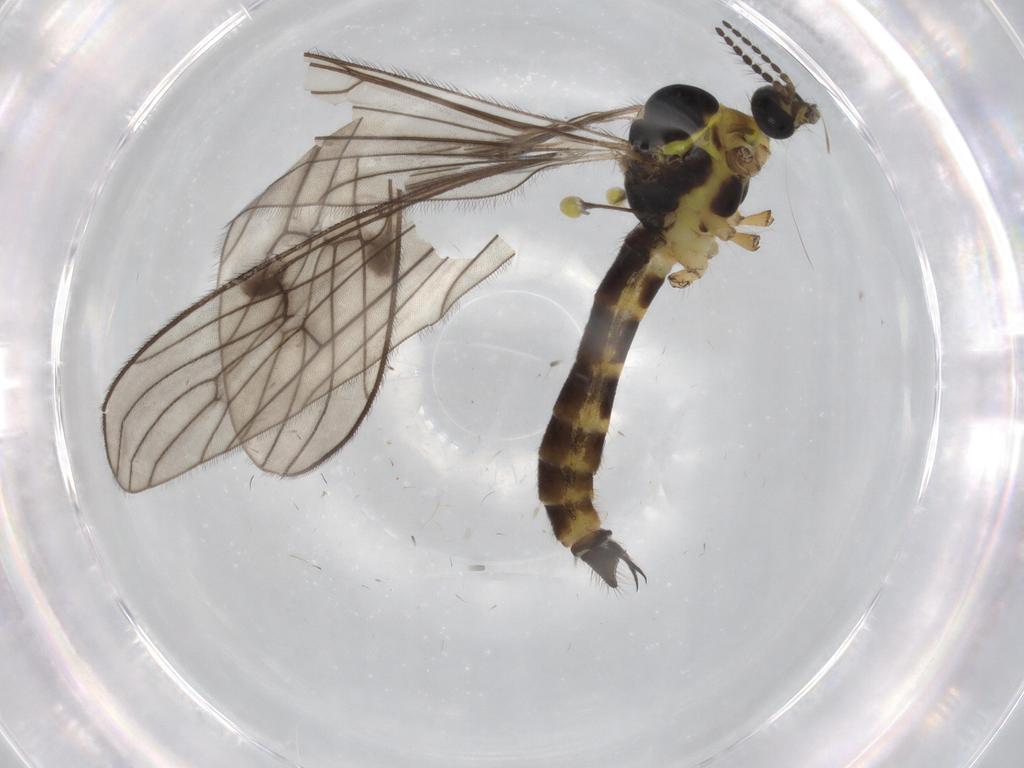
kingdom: Animalia
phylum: Arthropoda
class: Insecta
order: Diptera
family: Limoniidae
